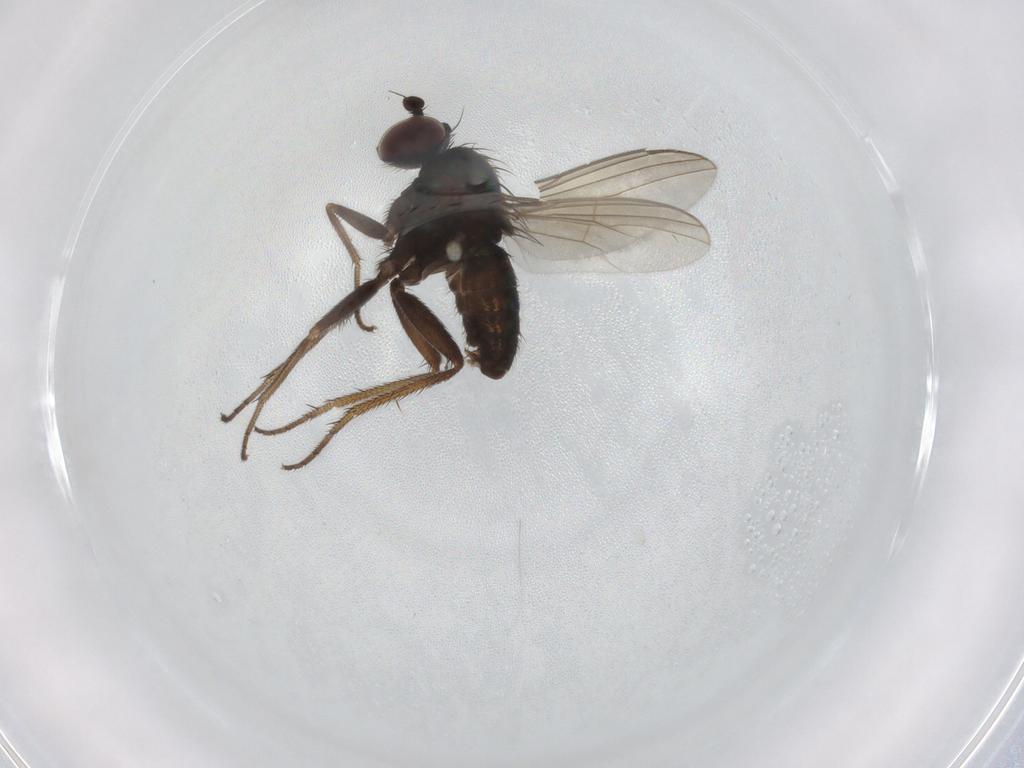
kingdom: Animalia
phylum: Arthropoda
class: Insecta
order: Diptera
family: Dolichopodidae
